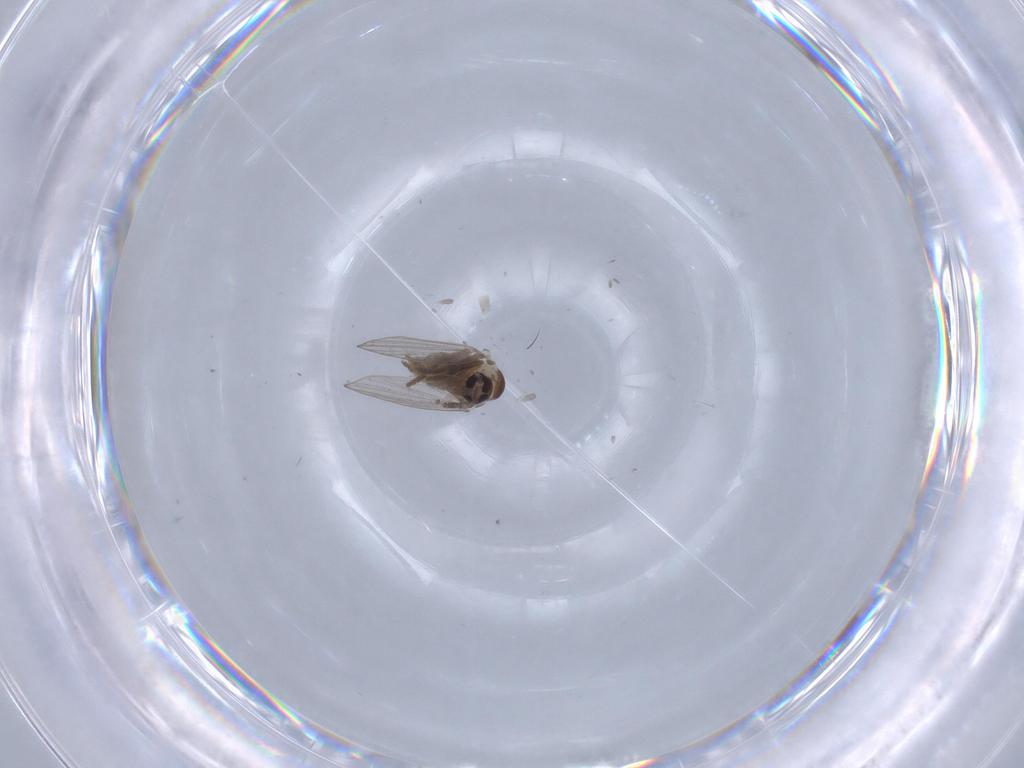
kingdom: Animalia
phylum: Arthropoda
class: Insecta
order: Diptera
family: Psychodidae
